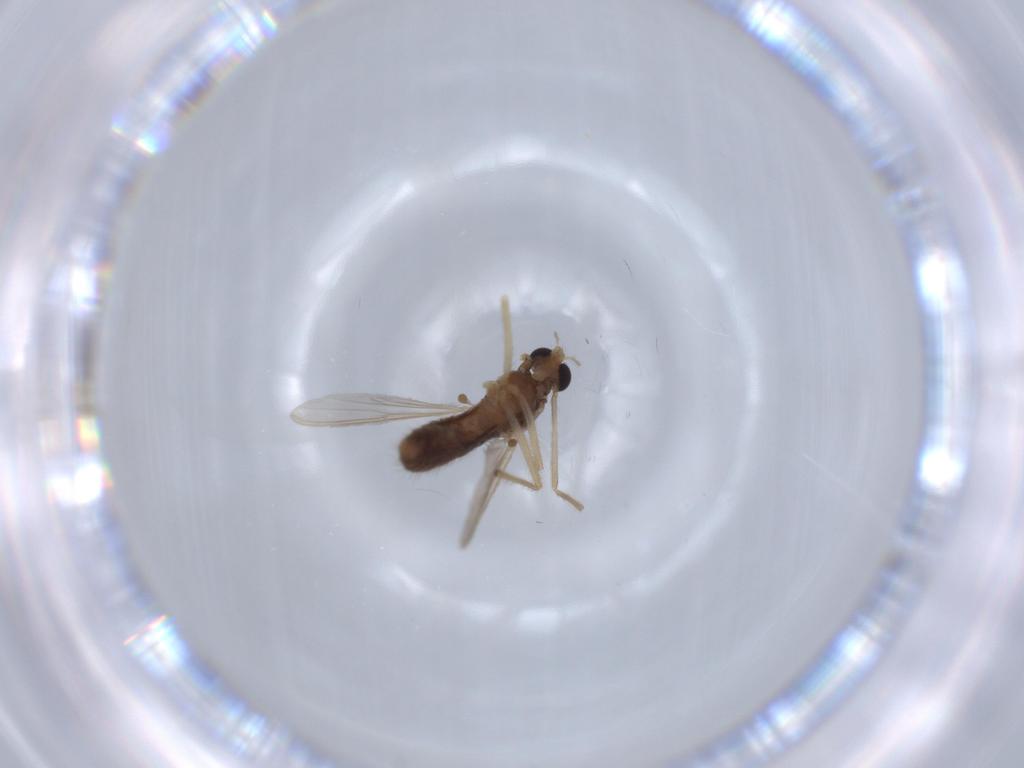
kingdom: Animalia
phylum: Arthropoda
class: Insecta
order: Diptera
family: Chironomidae
